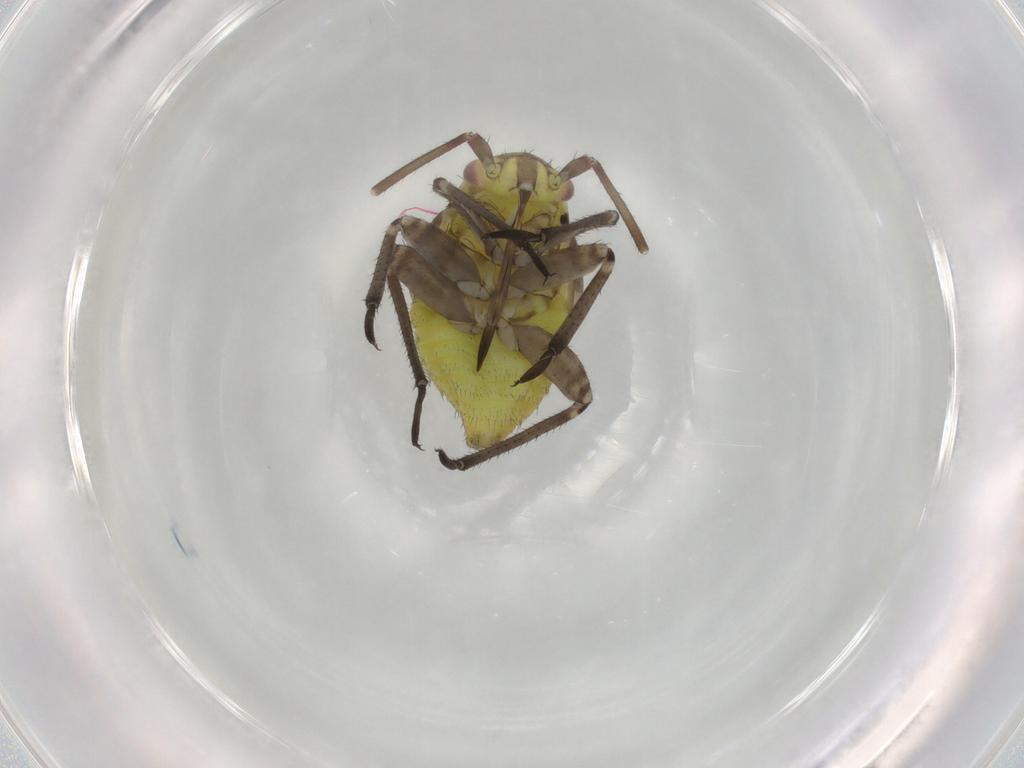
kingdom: Animalia
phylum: Arthropoda
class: Insecta
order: Hemiptera
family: Miridae
